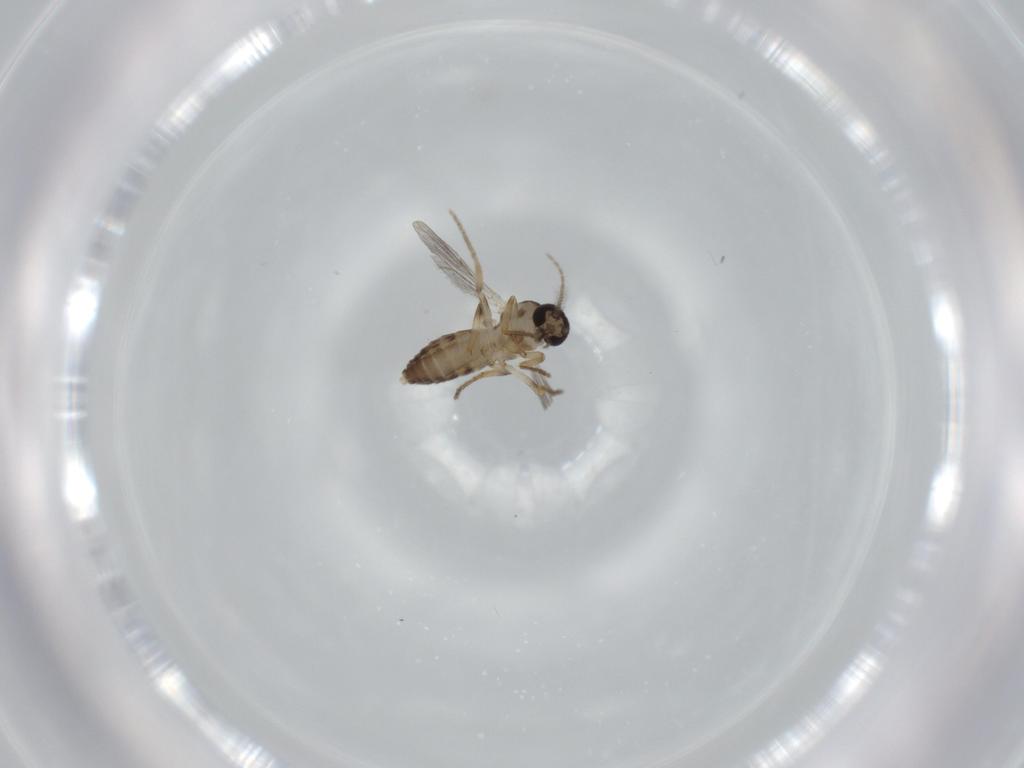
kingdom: Animalia
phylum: Arthropoda
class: Insecta
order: Diptera
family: Ceratopogonidae
